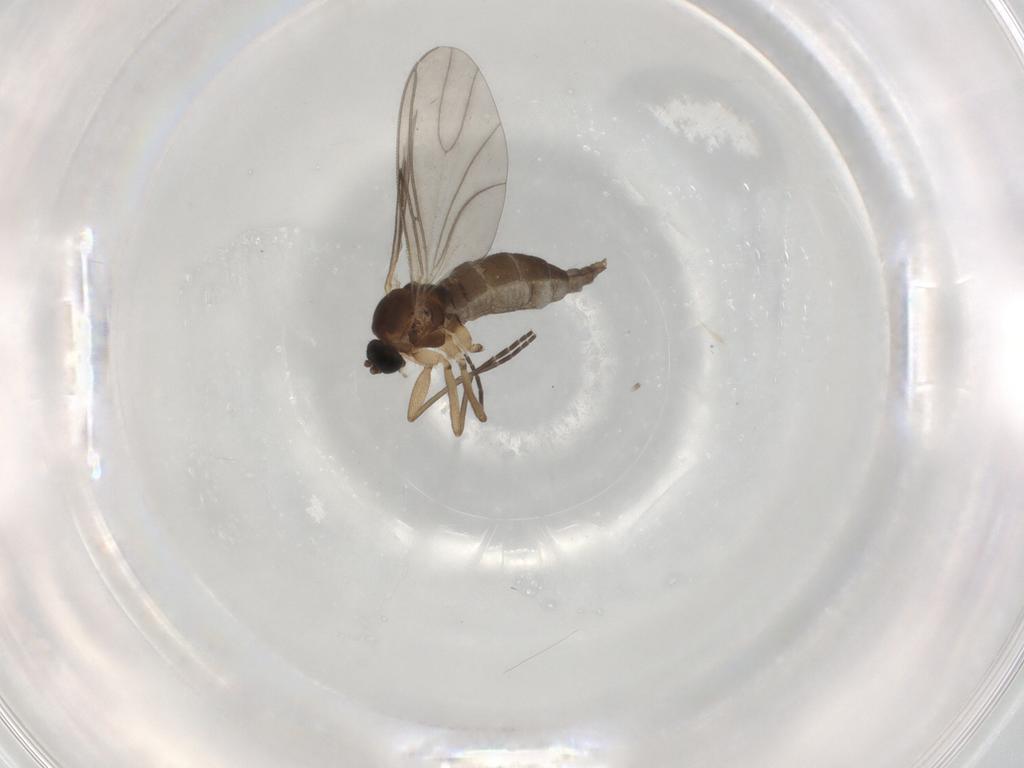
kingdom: Animalia
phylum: Arthropoda
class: Insecta
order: Diptera
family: Sciaridae
